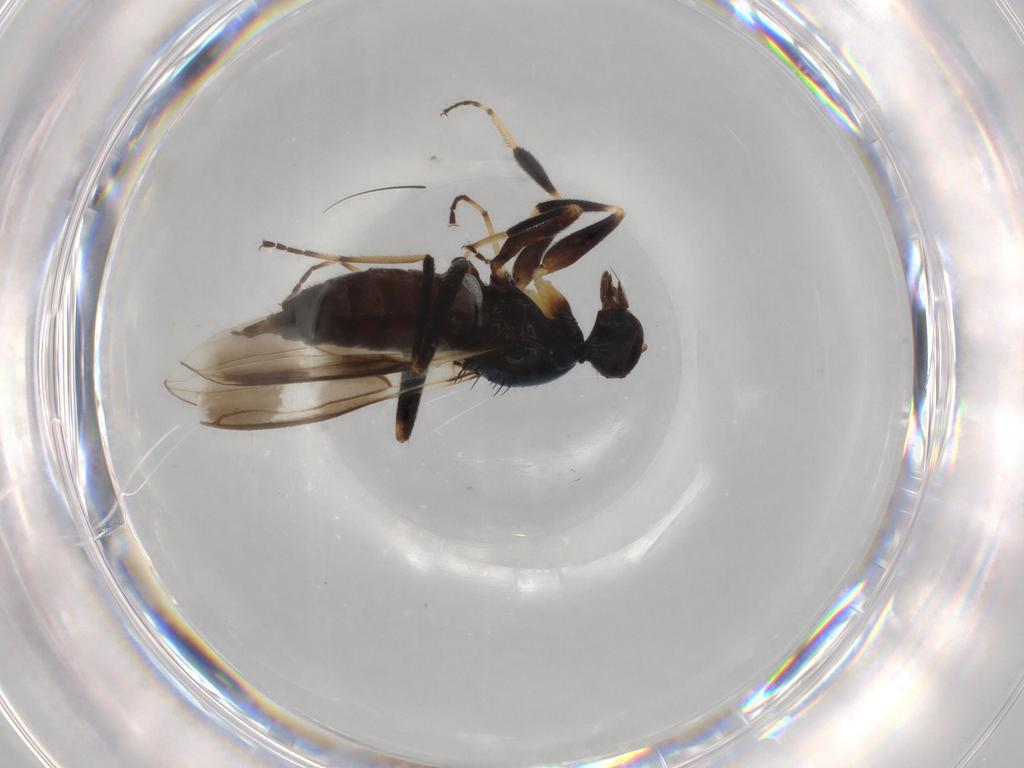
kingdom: Animalia
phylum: Arthropoda
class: Insecta
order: Diptera
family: Hybotidae
